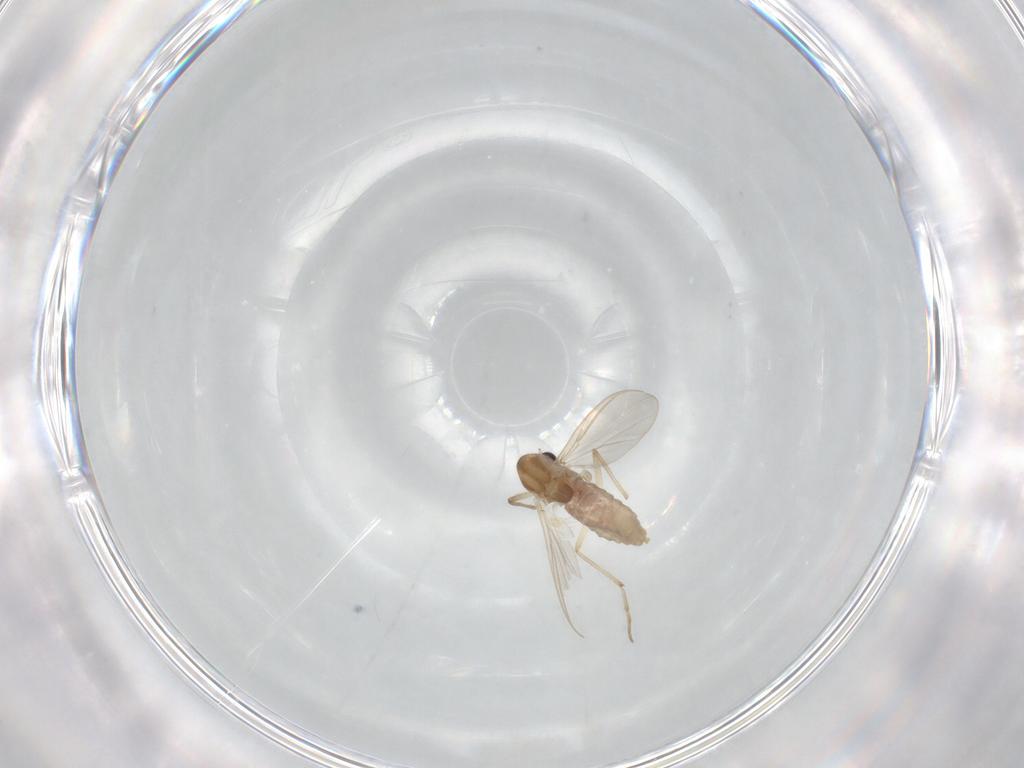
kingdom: Animalia
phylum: Arthropoda
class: Insecta
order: Diptera
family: Chironomidae
